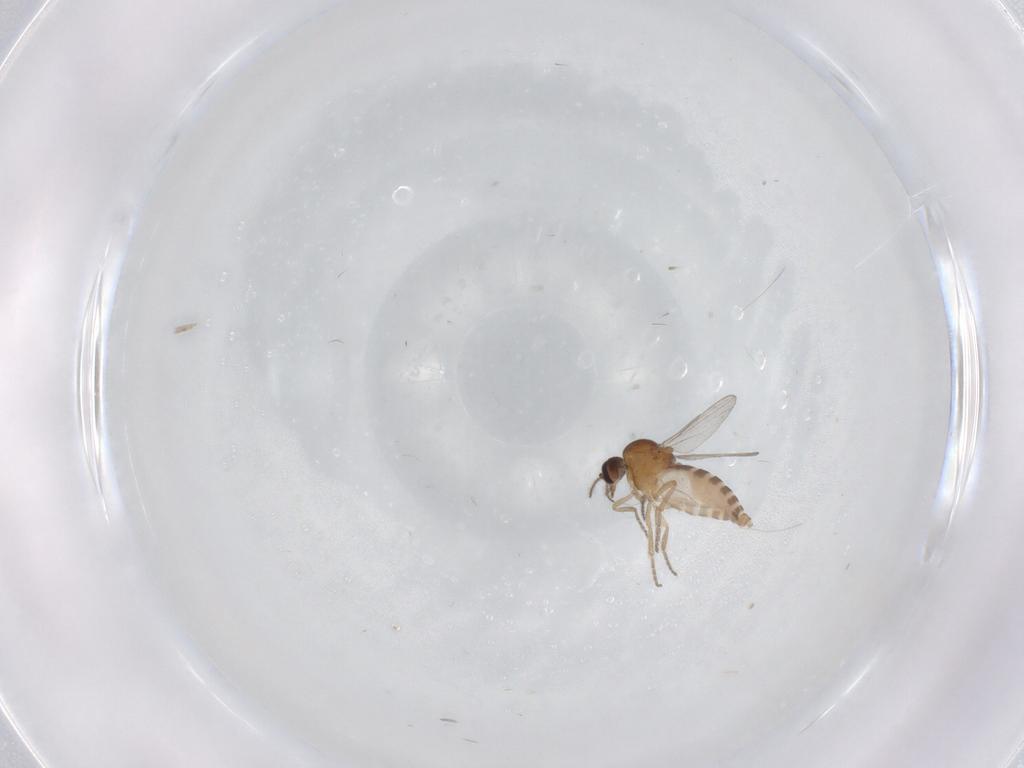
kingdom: Animalia
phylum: Arthropoda
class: Insecta
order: Diptera
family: Ceratopogonidae
